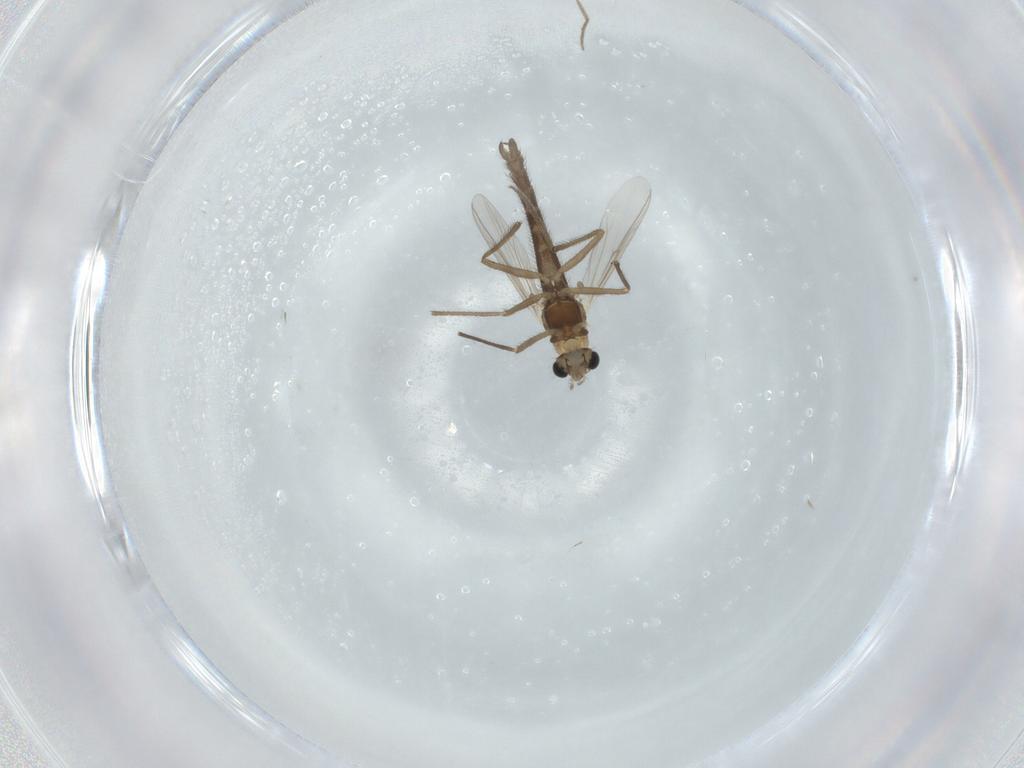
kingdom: Animalia
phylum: Arthropoda
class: Insecta
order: Diptera
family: Chironomidae
